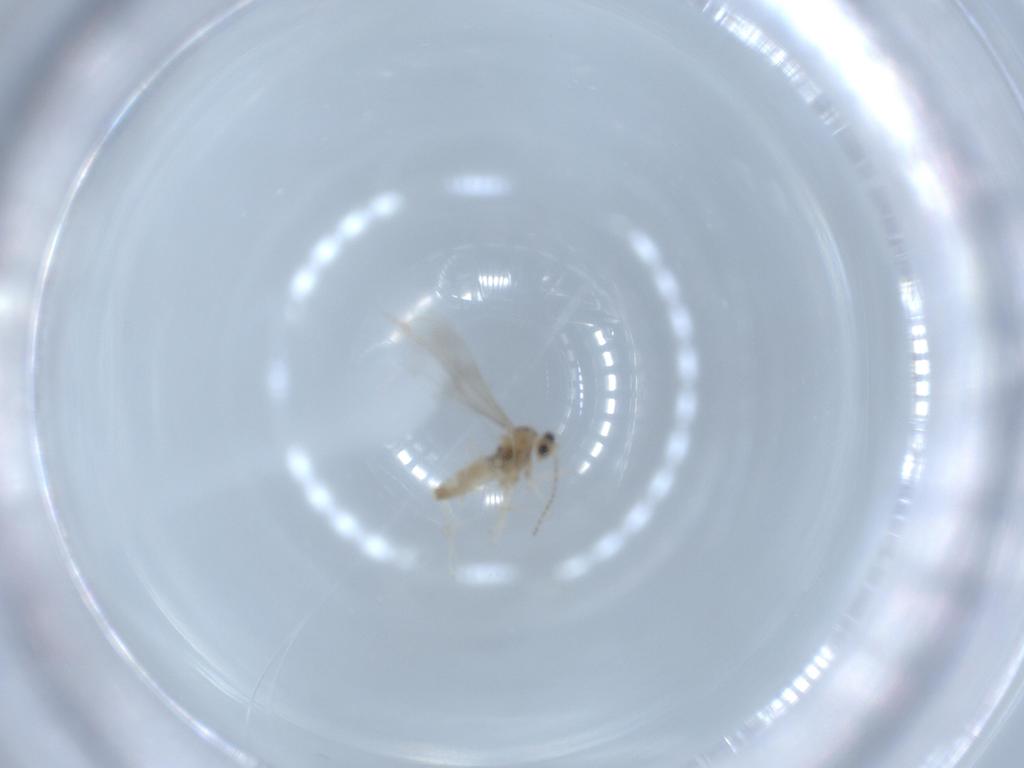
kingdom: Animalia
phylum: Arthropoda
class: Insecta
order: Diptera
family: Cecidomyiidae
